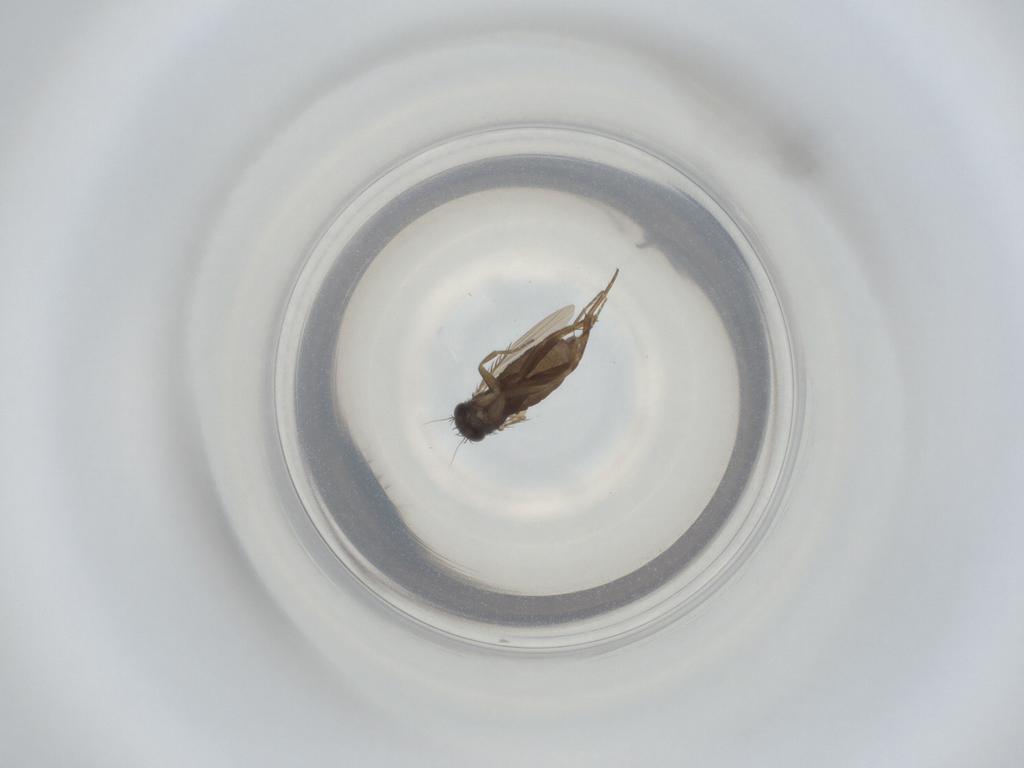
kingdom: Animalia
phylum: Arthropoda
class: Insecta
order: Diptera
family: Phoridae
